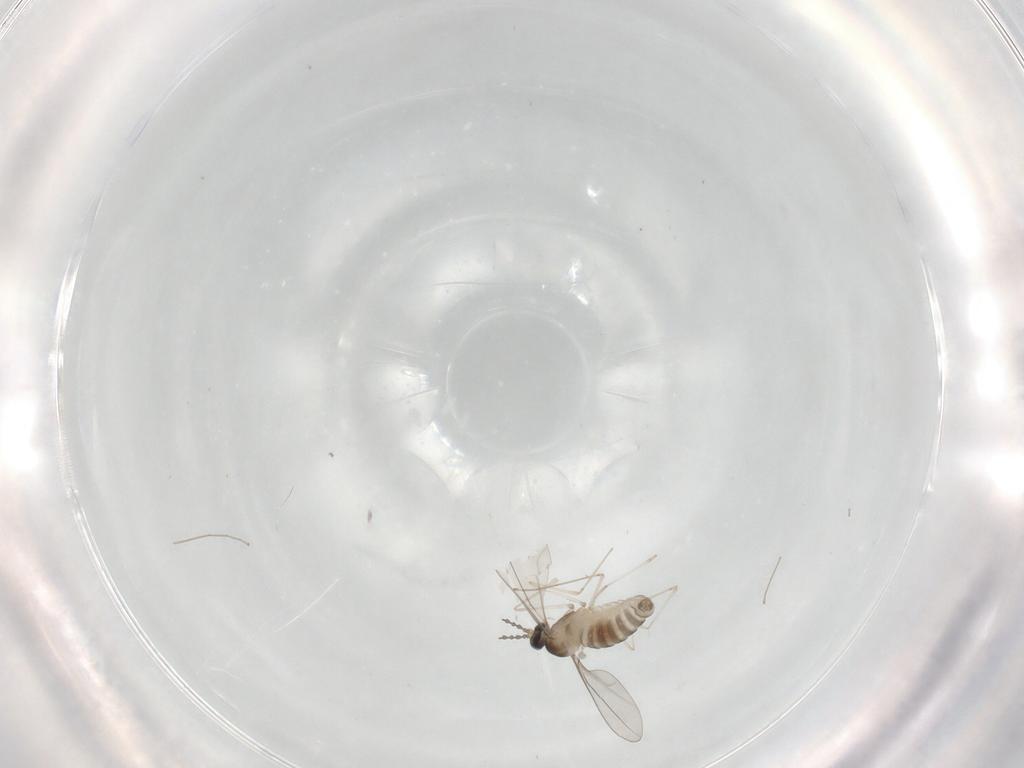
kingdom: Animalia
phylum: Arthropoda
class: Insecta
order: Diptera
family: Cecidomyiidae
